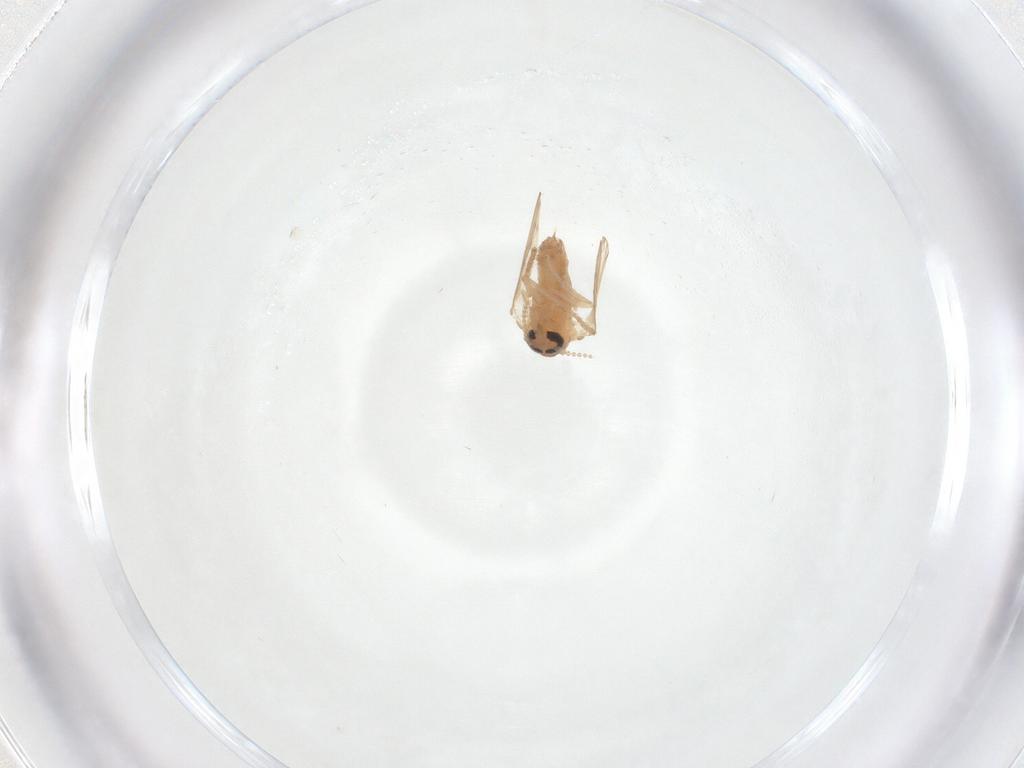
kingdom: Animalia
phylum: Arthropoda
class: Insecta
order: Diptera
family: Psychodidae
